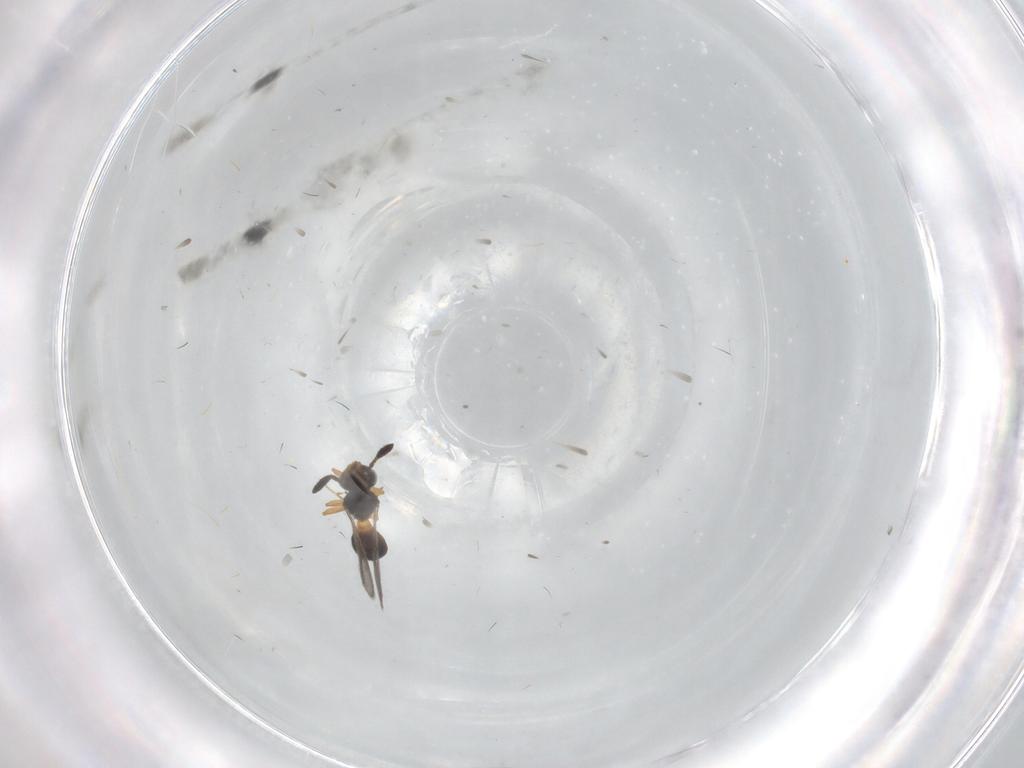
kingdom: Animalia
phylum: Arthropoda
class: Insecta
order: Hymenoptera
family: Scelionidae
